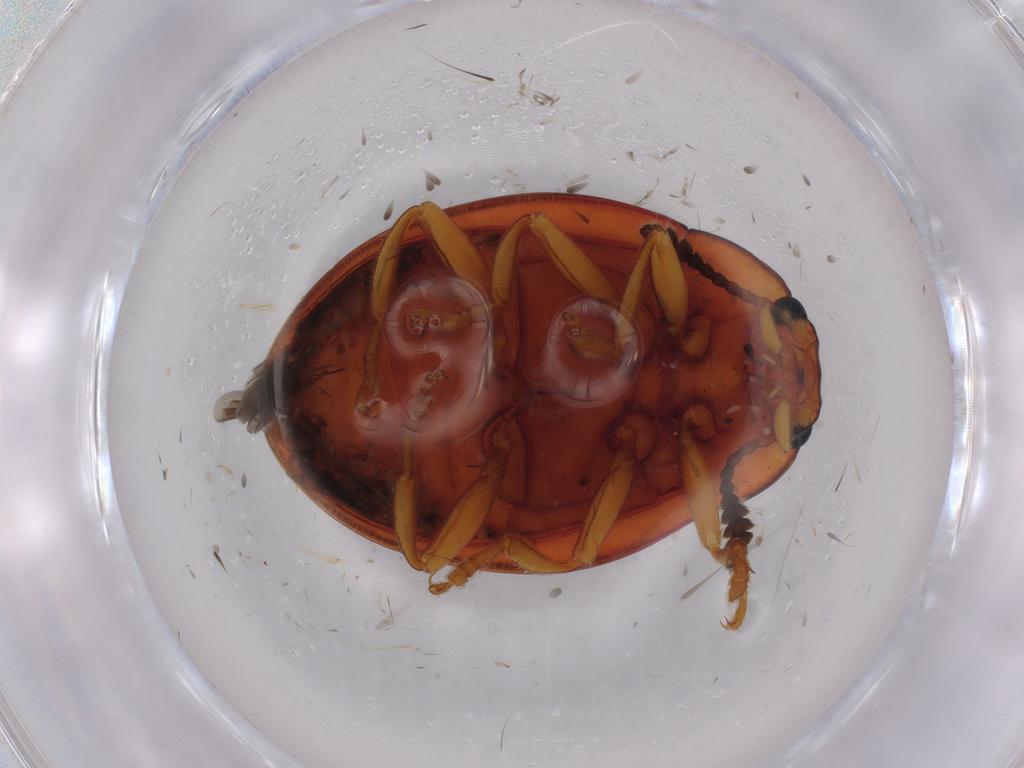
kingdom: Animalia
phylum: Arthropoda
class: Insecta
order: Coleoptera
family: Erotylidae
